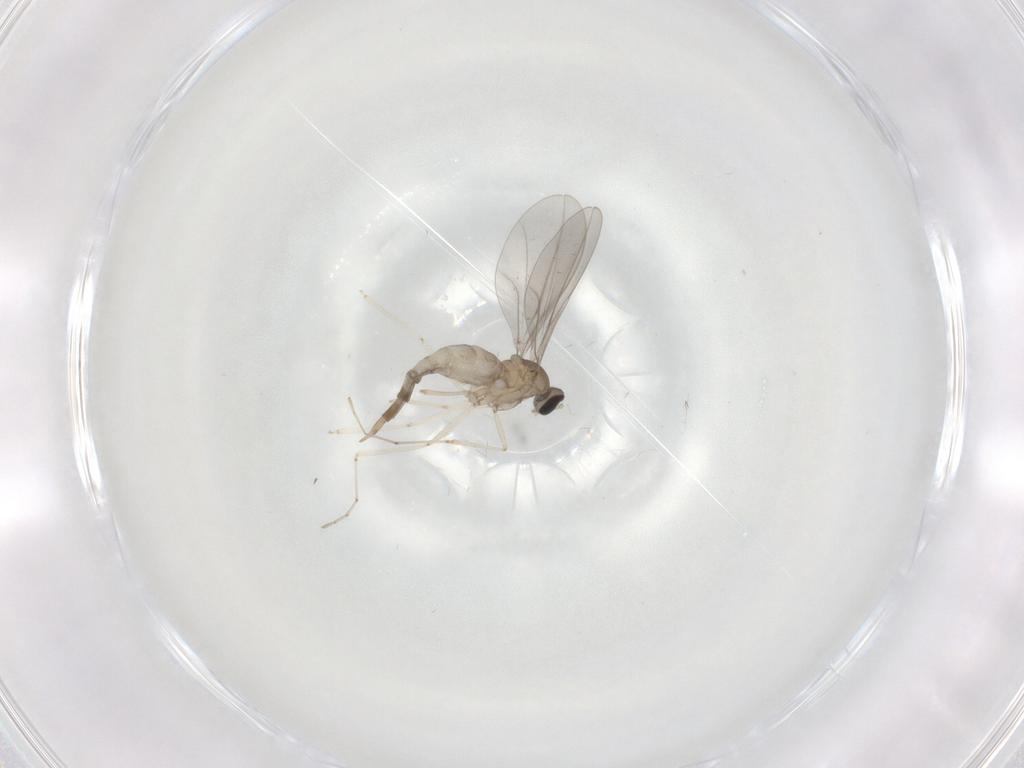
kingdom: Animalia
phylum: Arthropoda
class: Insecta
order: Diptera
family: Cecidomyiidae
